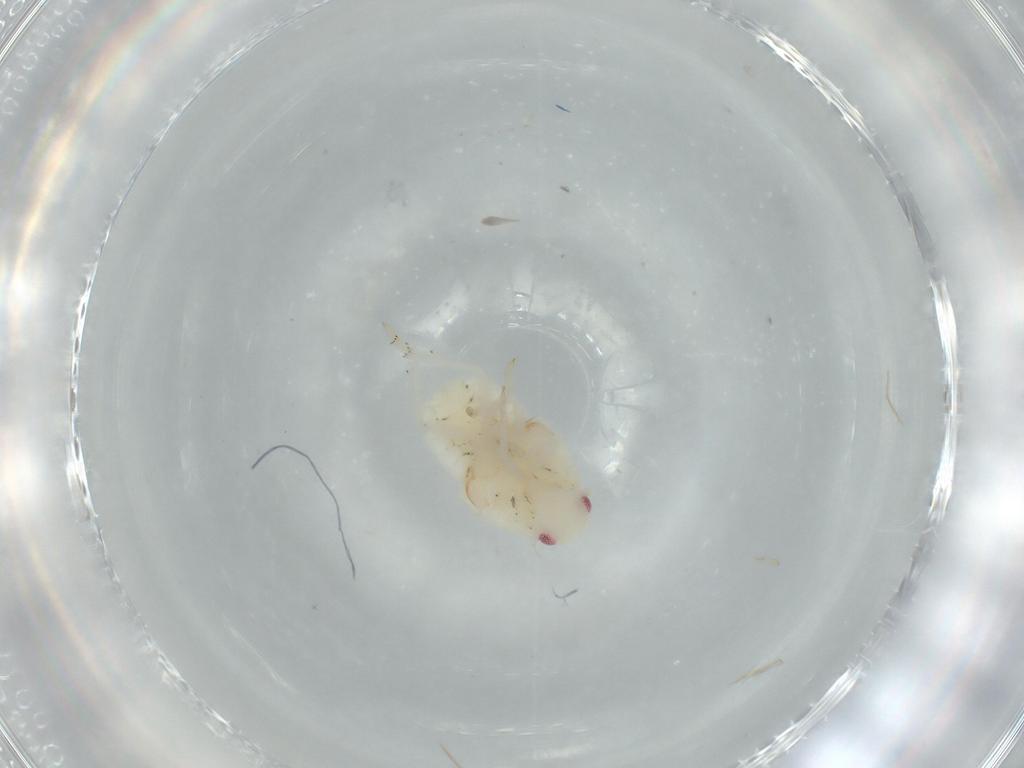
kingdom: Animalia
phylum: Arthropoda
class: Insecta
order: Hemiptera
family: Flatidae
